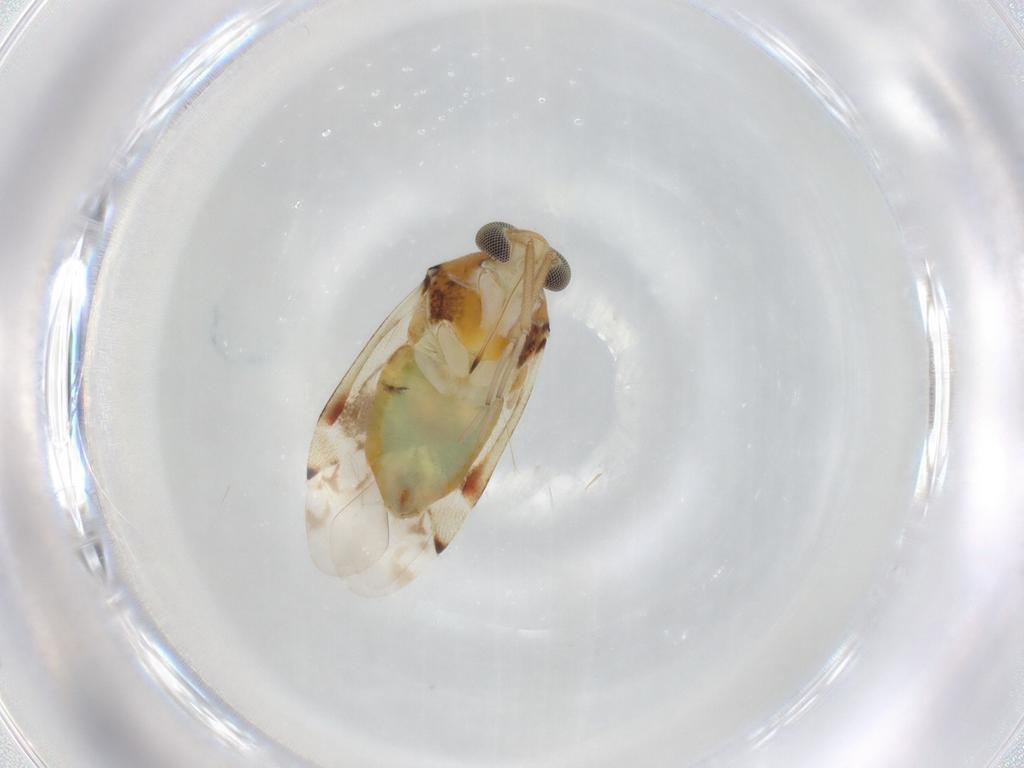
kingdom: Animalia
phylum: Arthropoda
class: Insecta
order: Hemiptera
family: Miridae
